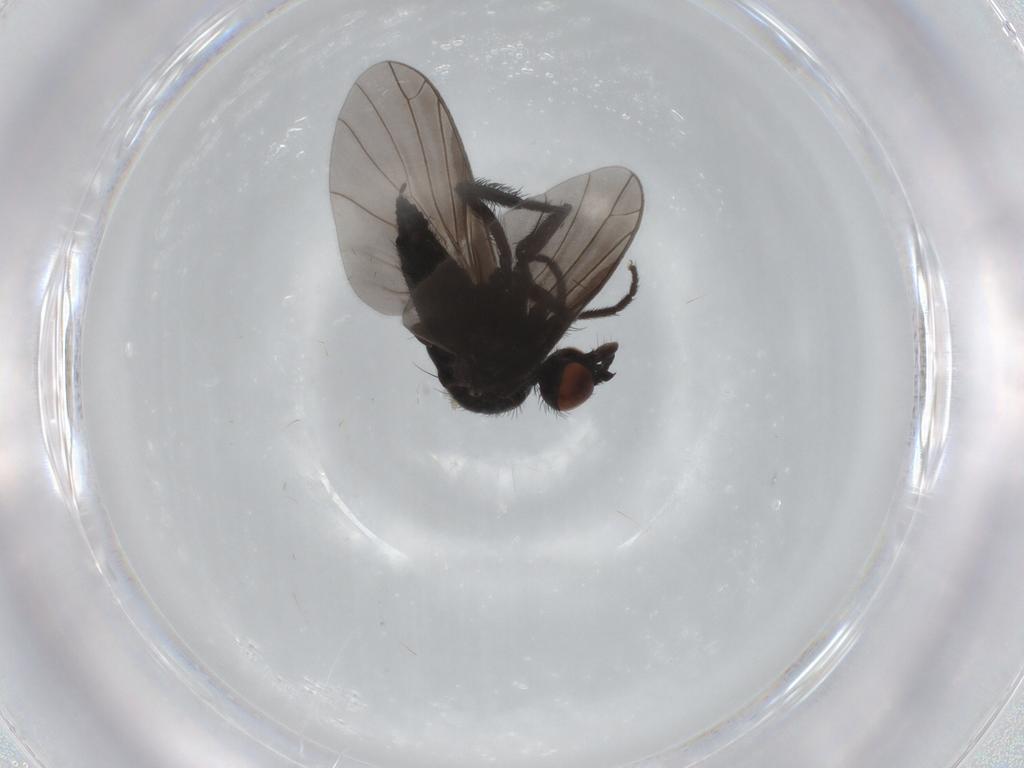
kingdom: Animalia
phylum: Arthropoda
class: Insecta
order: Diptera
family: Empididae
